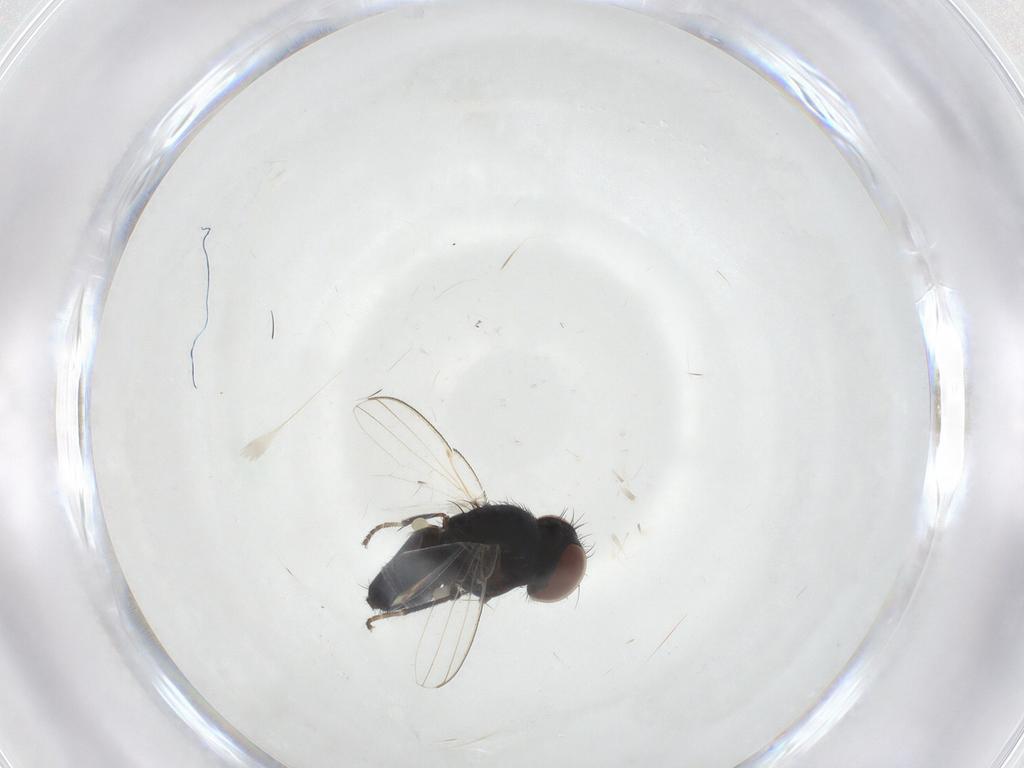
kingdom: Animalia
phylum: Arthropoda
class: Insecta
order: Diptera
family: Milichiidae
